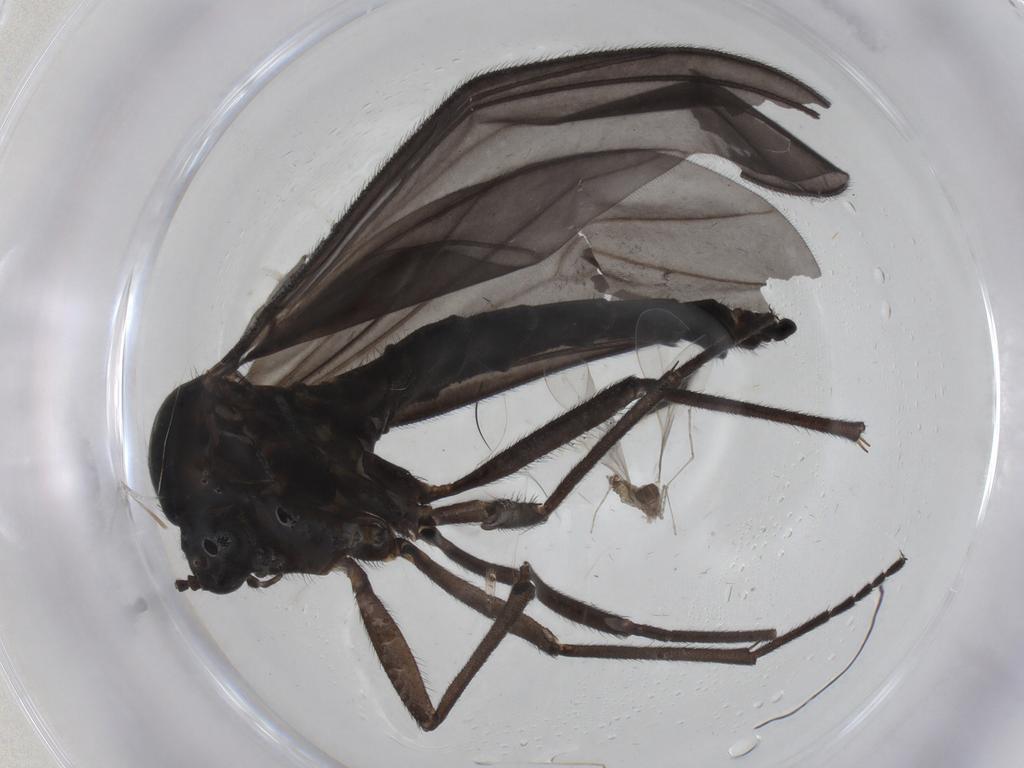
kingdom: Animalia
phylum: Arthropoda
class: Insecta
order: Diptera
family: Sciaridae
